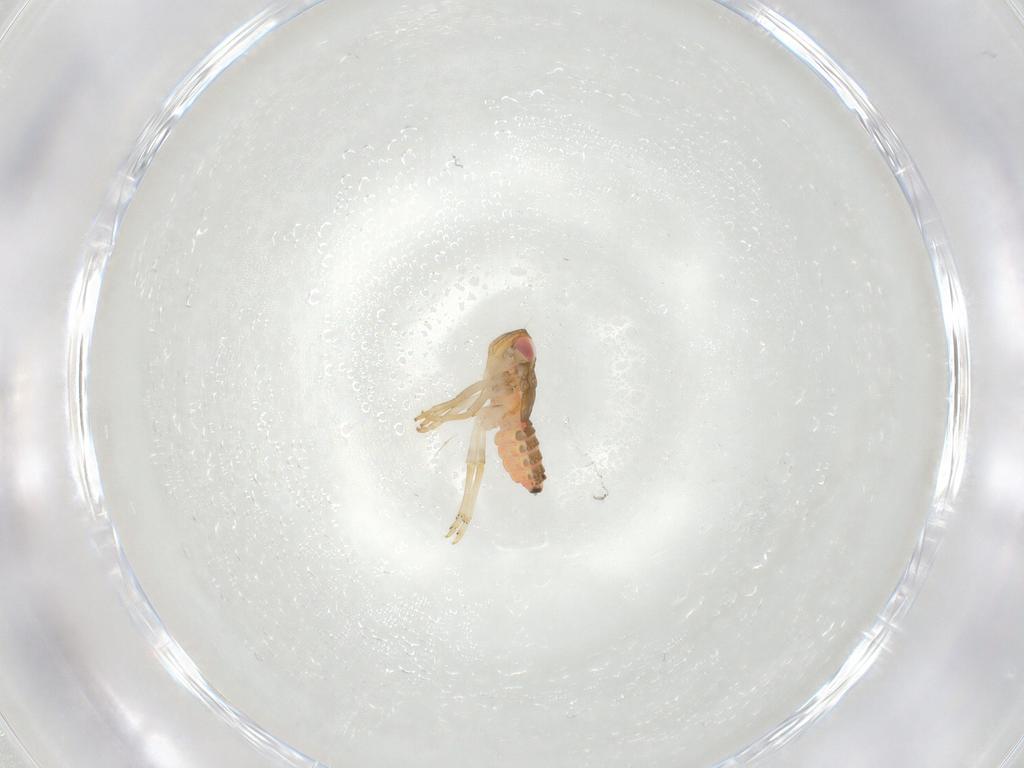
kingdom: Animalia
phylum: Arthropoda
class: Insecta
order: Hemiptera
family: Issidae
